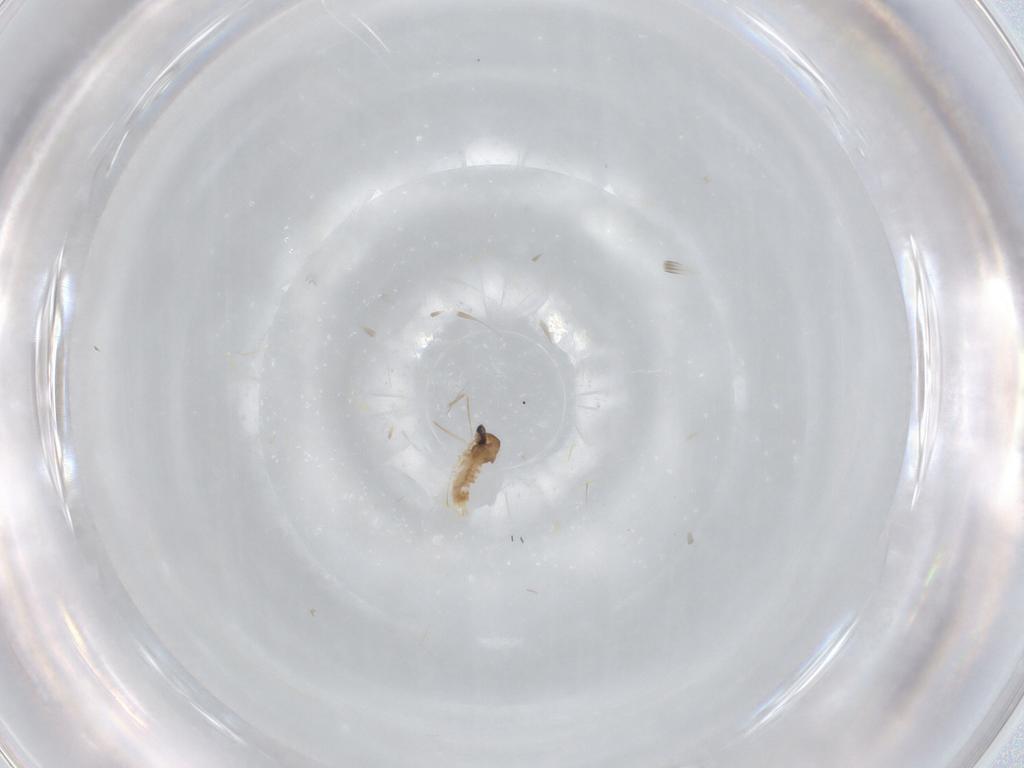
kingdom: Animalia
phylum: Arthropoda
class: Insecta
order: Diptera
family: Cecidomyiidae
